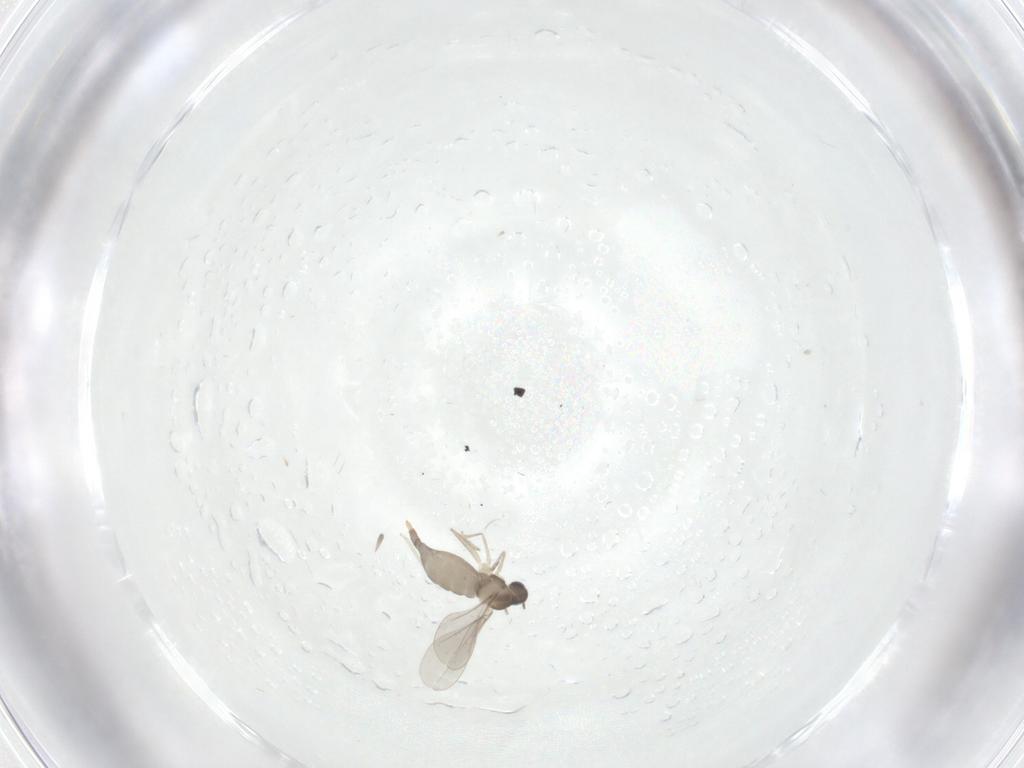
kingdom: Animalia
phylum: Arthropoda
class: Insecta
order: Diptera
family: Cecidomyiidae
